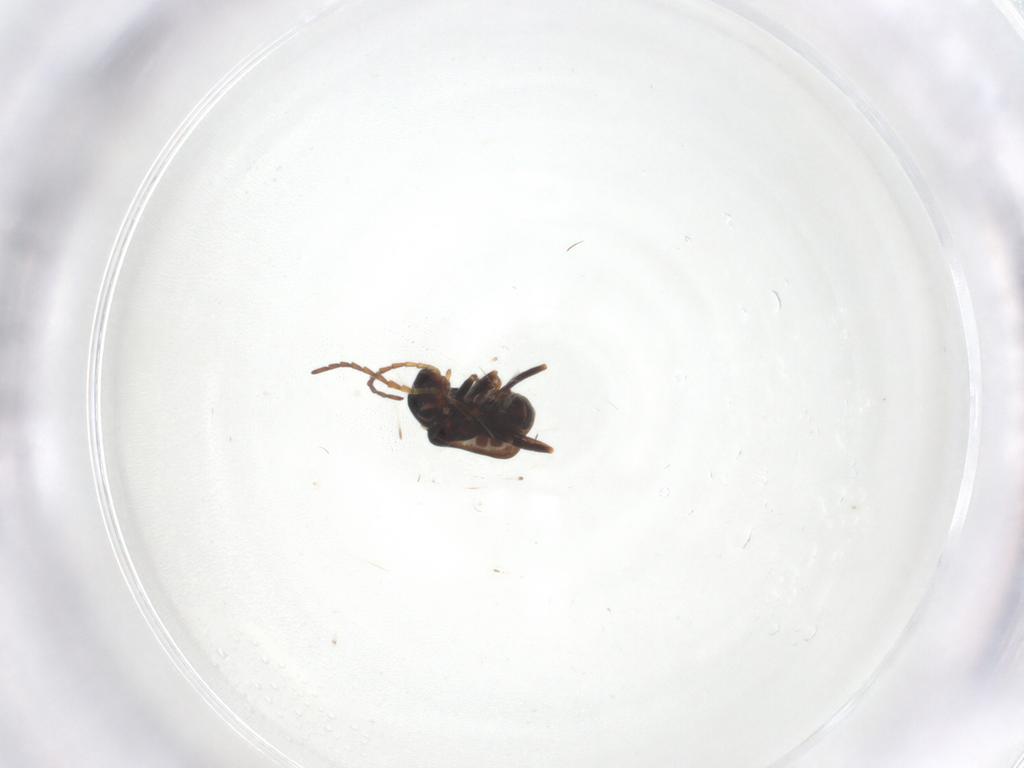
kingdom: Animalia
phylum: Arthropoda
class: Insecta
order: Coleoptera
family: Melyridae
